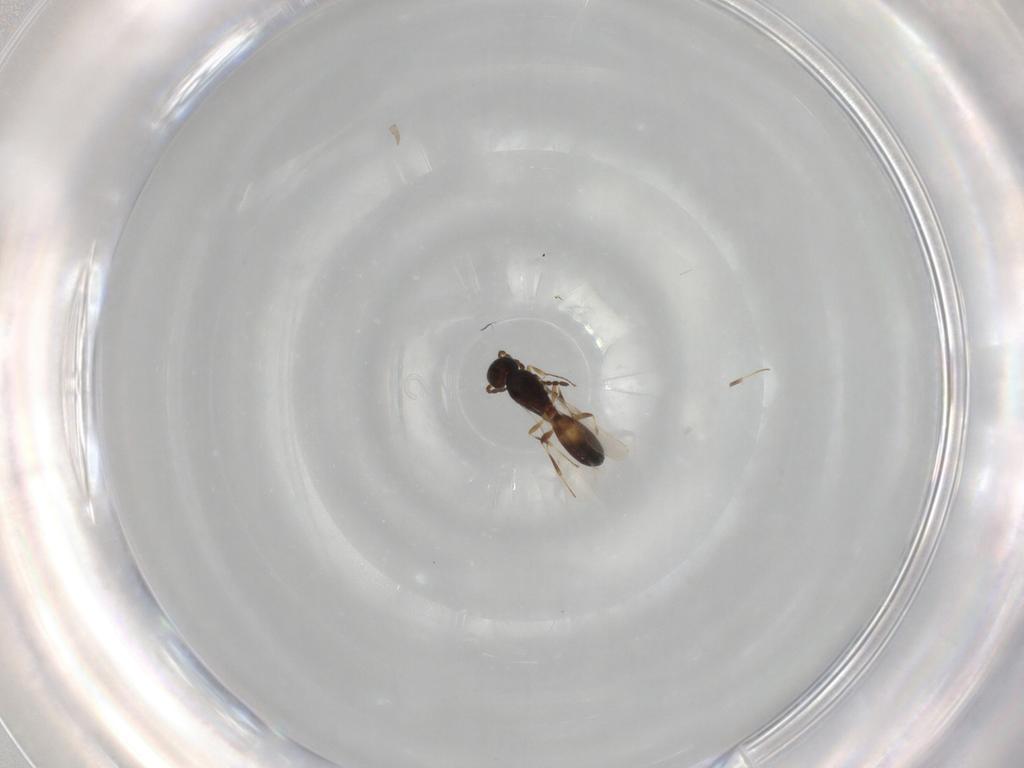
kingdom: Animalia
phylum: Arthropoda
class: Insecta
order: Hymenoptera
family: Scelionidae
